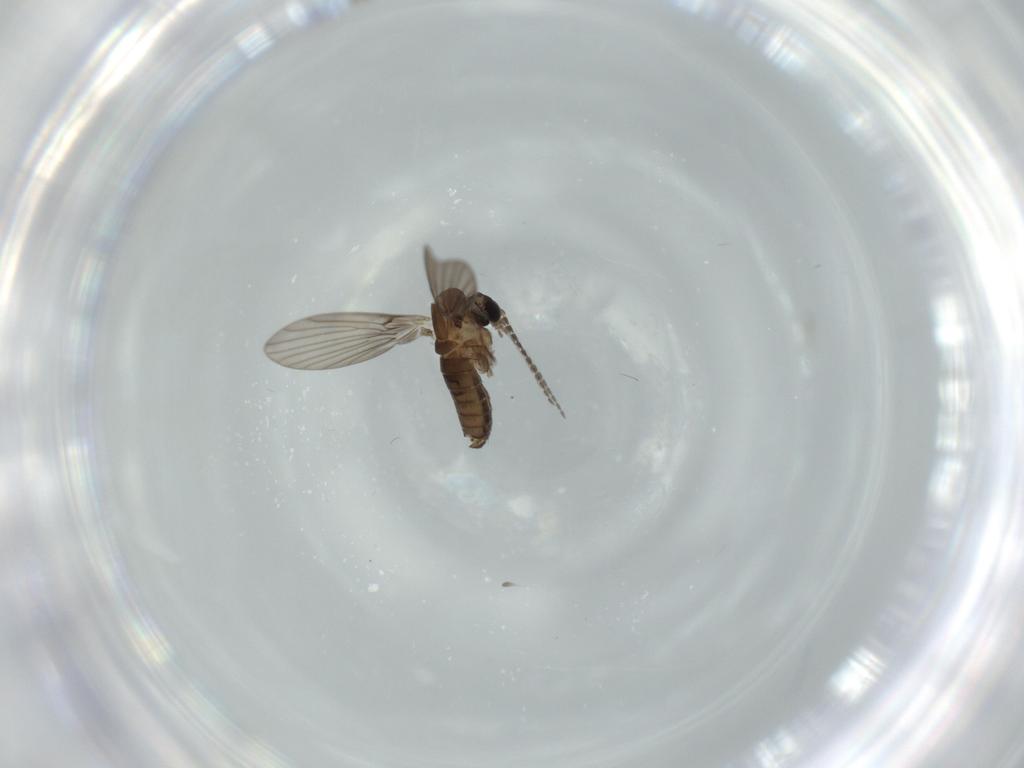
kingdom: Animalia
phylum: Arthropoda
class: Insecta
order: Diptera
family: Psychodidae
